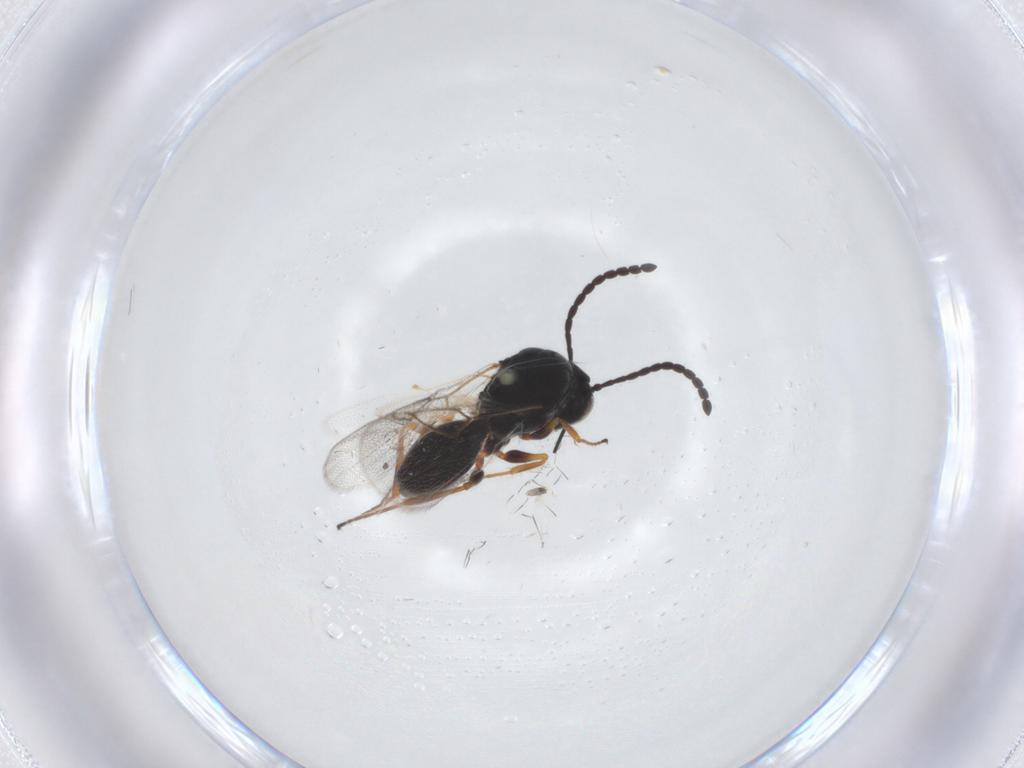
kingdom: Animalia
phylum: Arthropoda
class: Insecta
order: Hymenoptera
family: Figitidae
